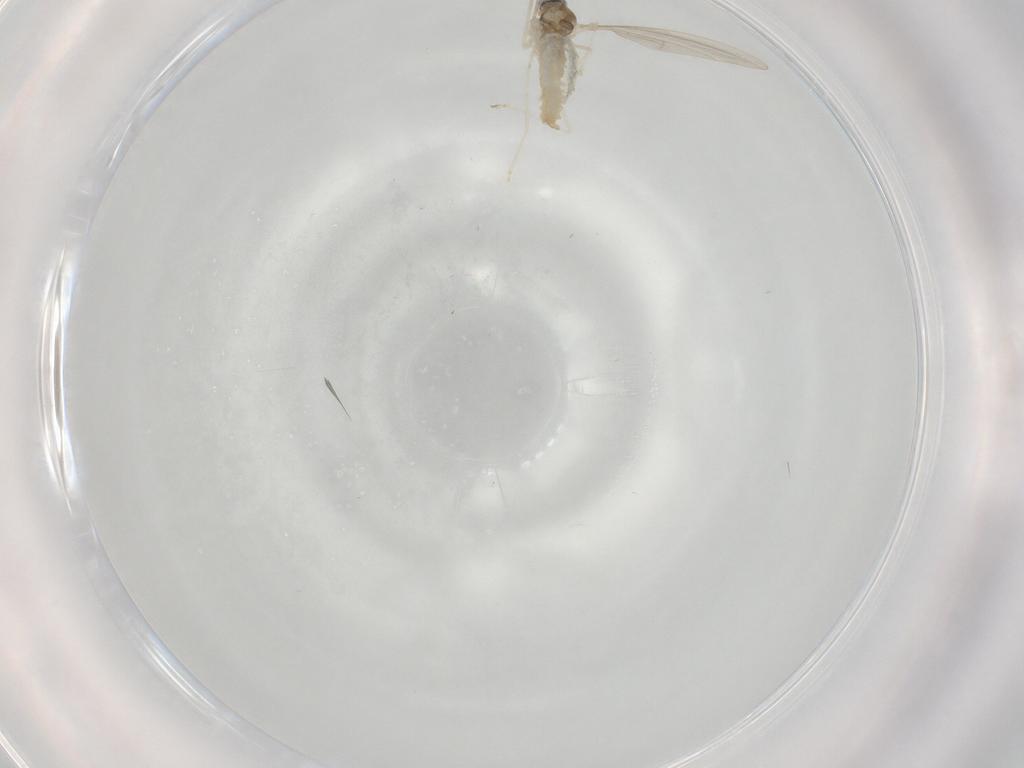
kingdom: Animalia
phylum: Arthropoda
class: Insecta
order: Diptera
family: Cecidomyiidae
